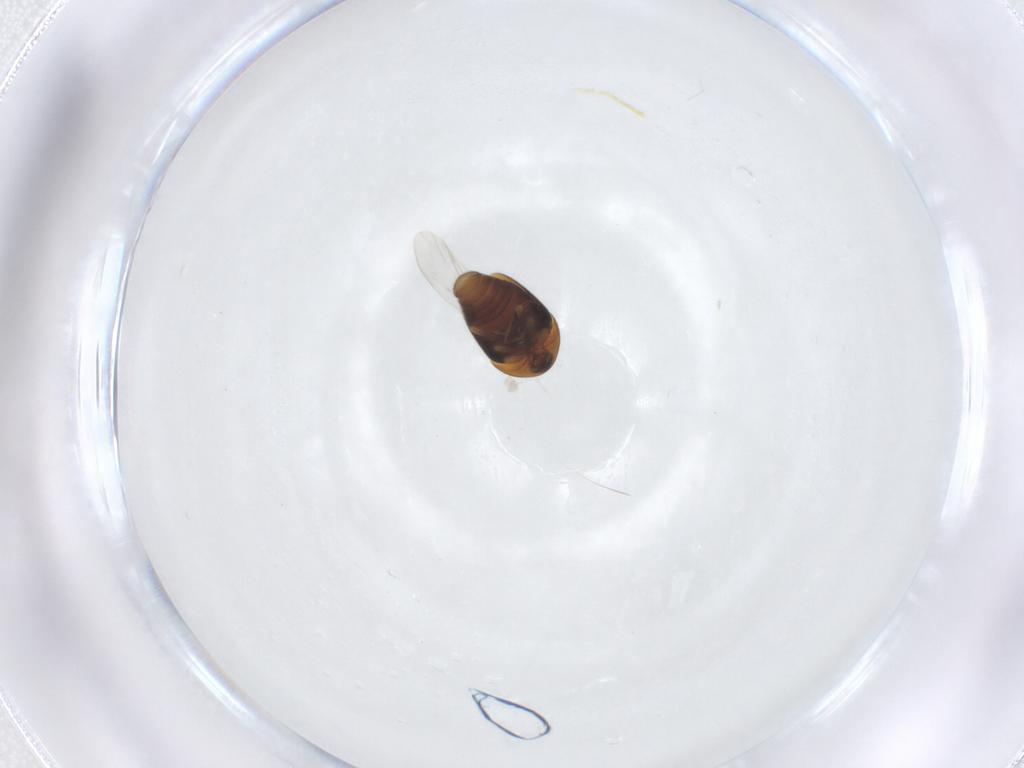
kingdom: Animalia
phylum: Arthropoda
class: Insecta
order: Coleoptera
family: Corylophidae
